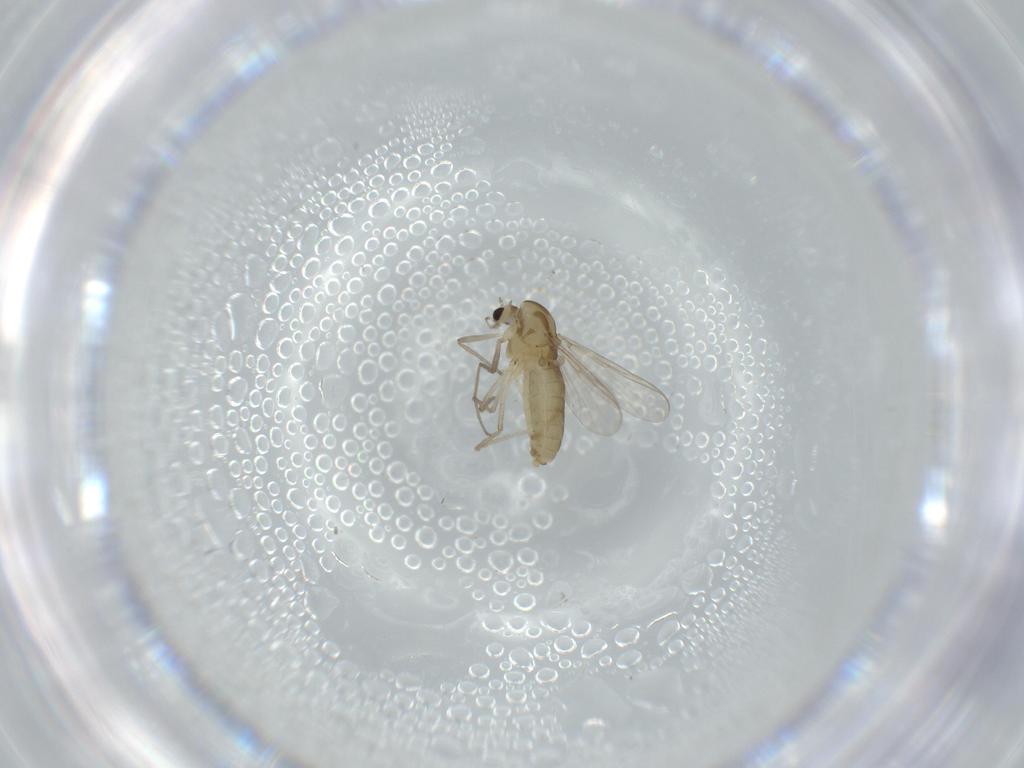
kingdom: Animalia
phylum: Arthropoda
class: Insecta
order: Diptera
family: Chironomidae
